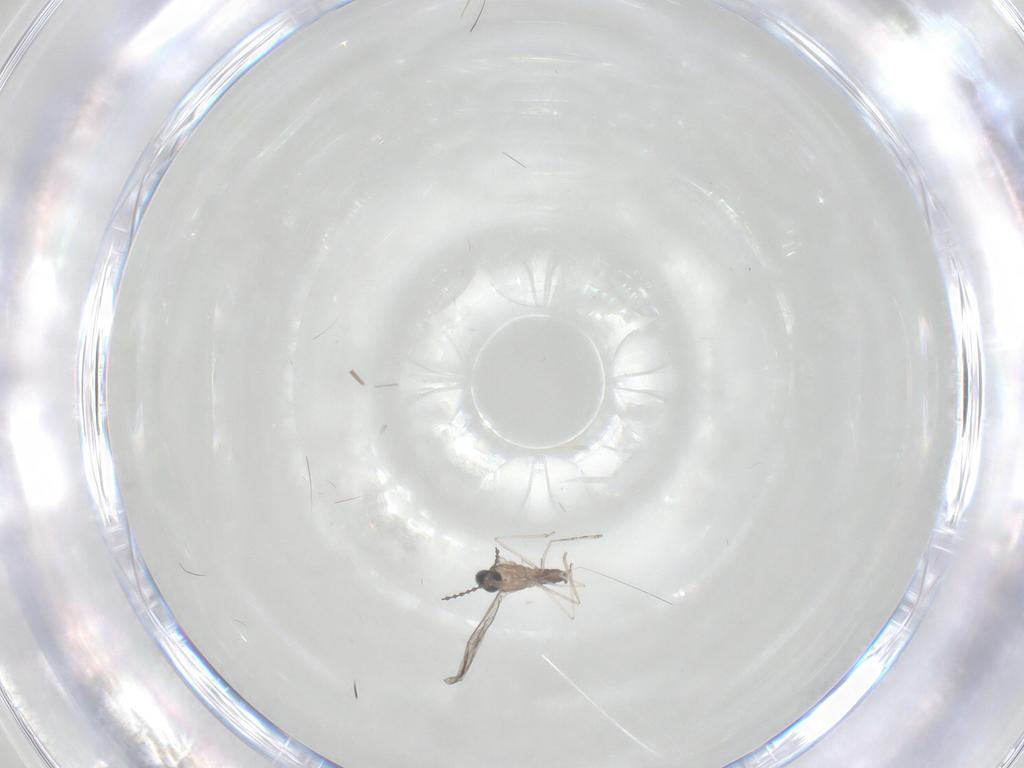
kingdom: Animalia
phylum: Arthropoda
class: Insecta
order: Diptera
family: Cecidomyiidae
